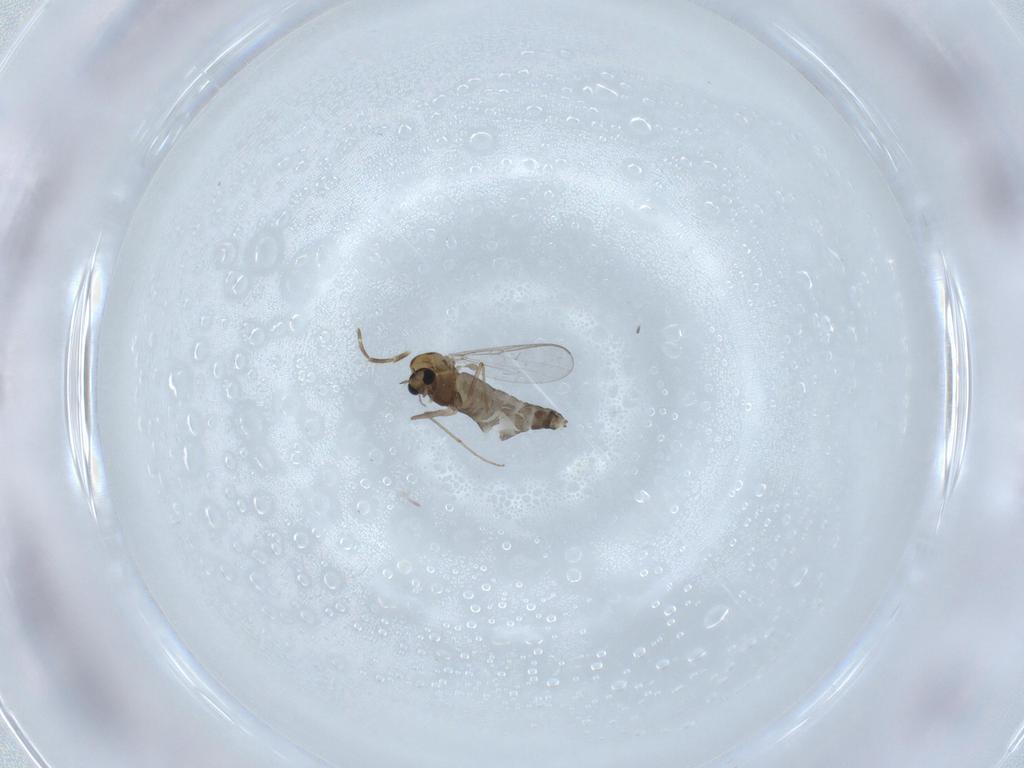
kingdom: Animalia
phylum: Arthropoda
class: Insecta
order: Diptera
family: Cecidomyiidae
